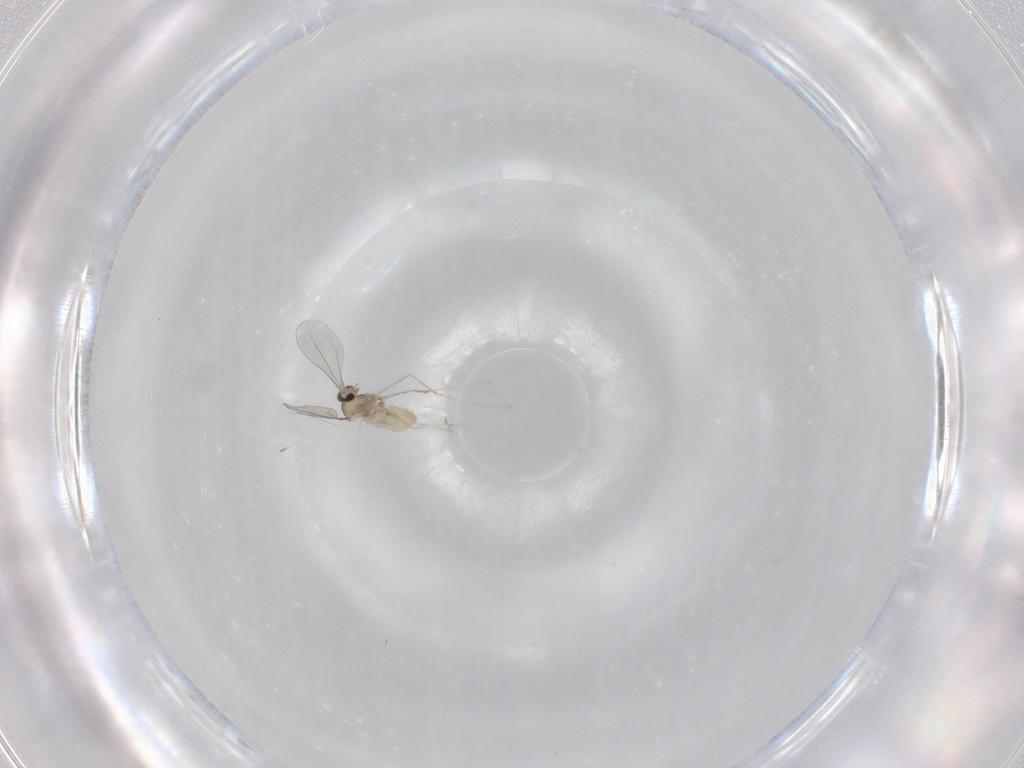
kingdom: Animalia
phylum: Arthropoda
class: Insecta
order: Diptera
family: Cecidomyiidae
